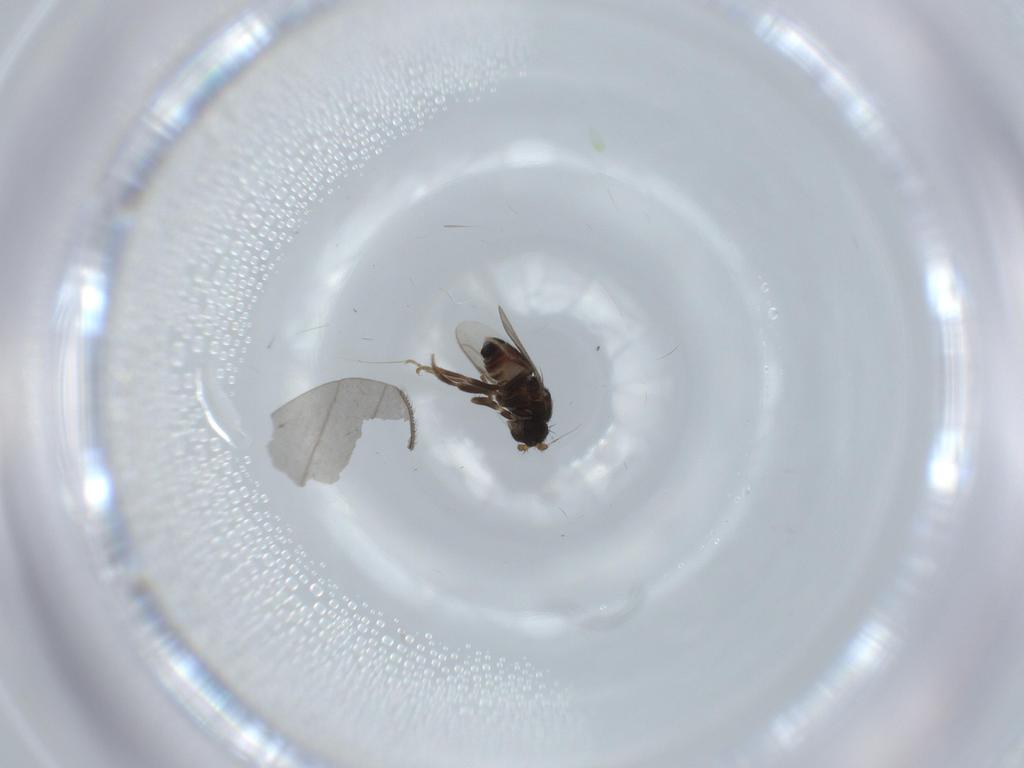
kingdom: Animalia
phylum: Arthropoda
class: Insecta
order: Diptera
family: Sphaeroceridae
